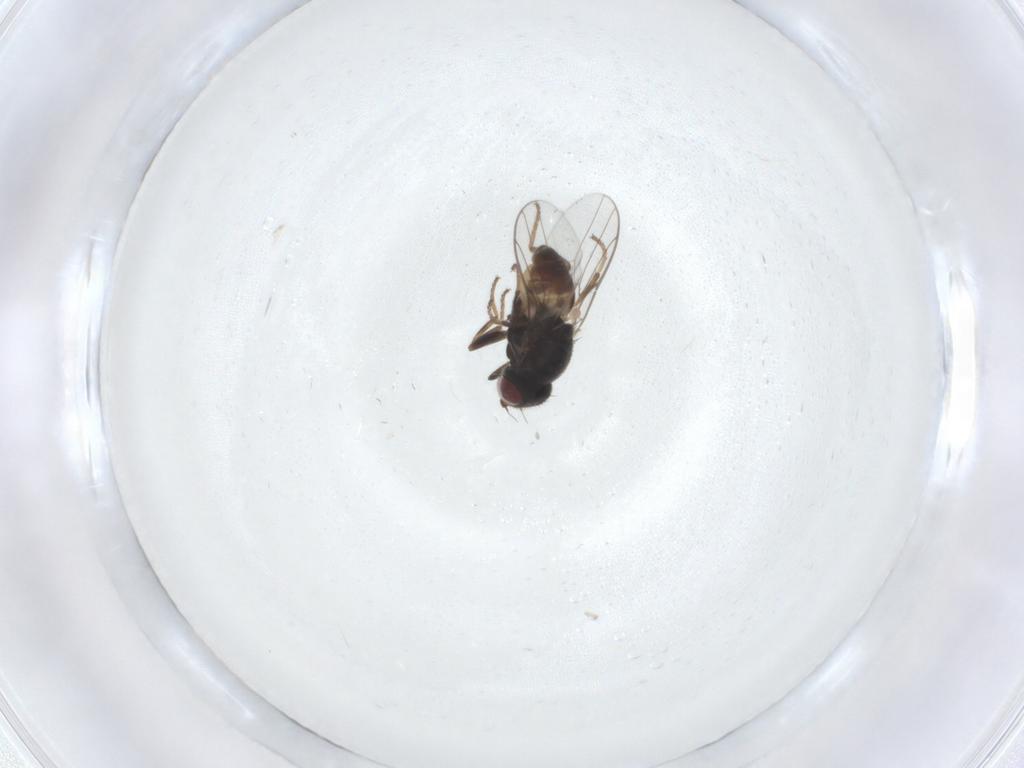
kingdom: Animalia
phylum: Arthropoda
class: Insecta
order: Diptera
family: Chloropidae
